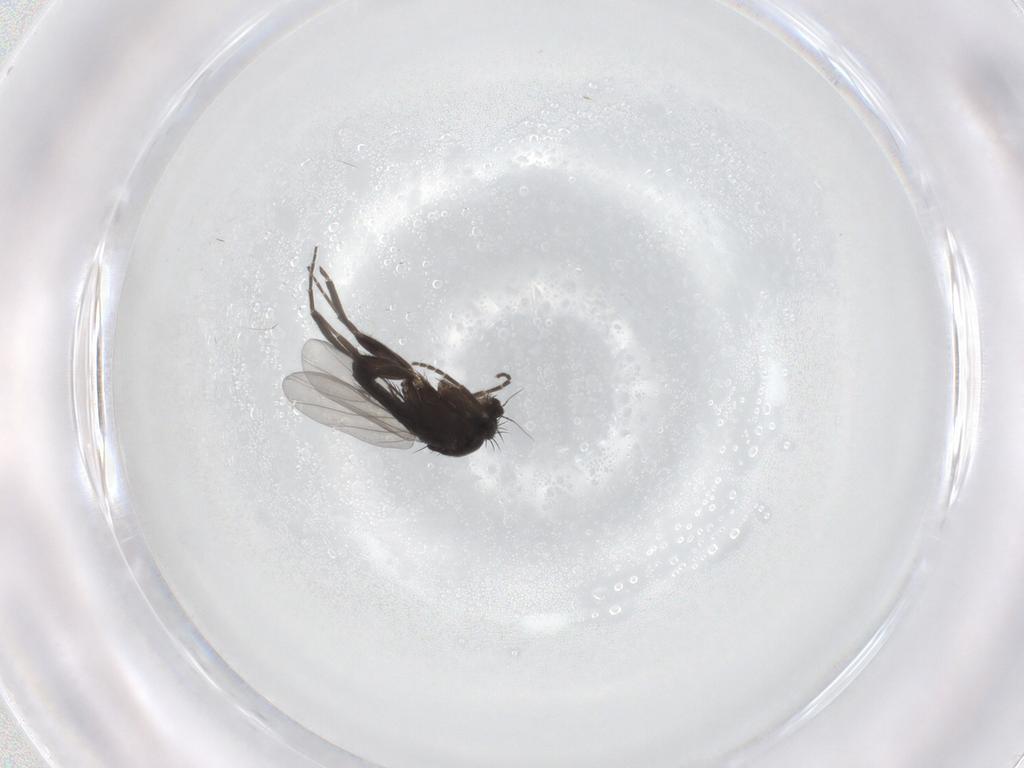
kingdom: Animalia
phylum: Arthropoda
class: Insecta
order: Diptera
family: Phoridae
